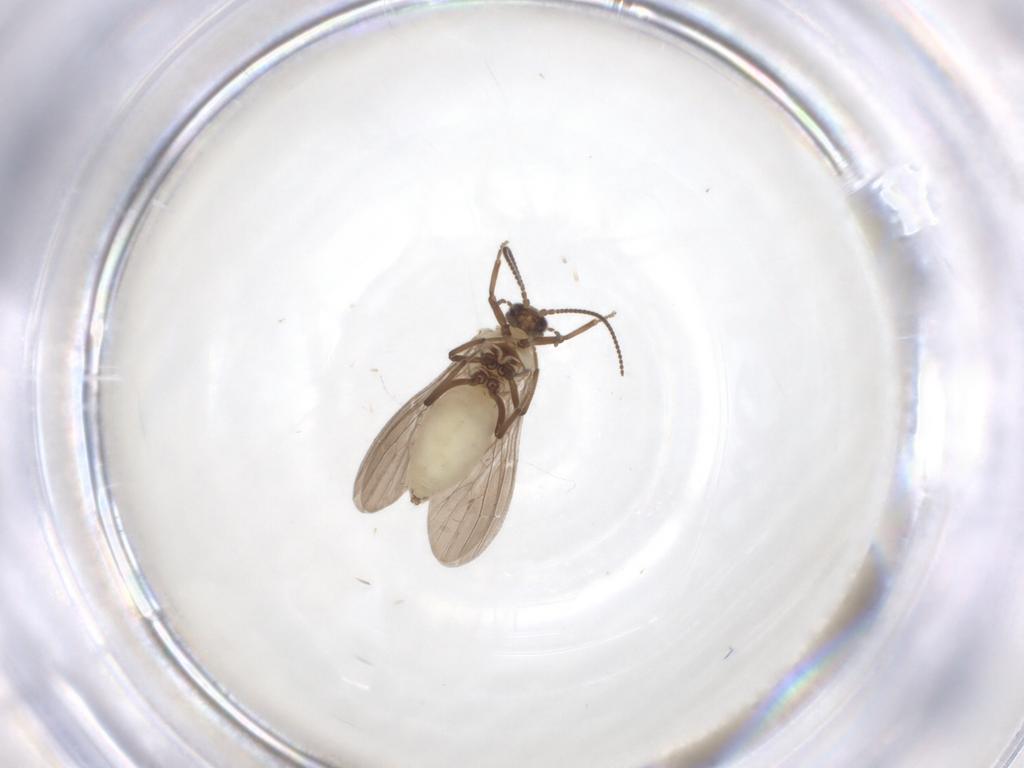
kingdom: Animalia
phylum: Arthropoda
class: Insecta
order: Neuroptera
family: Coniopterygidae
